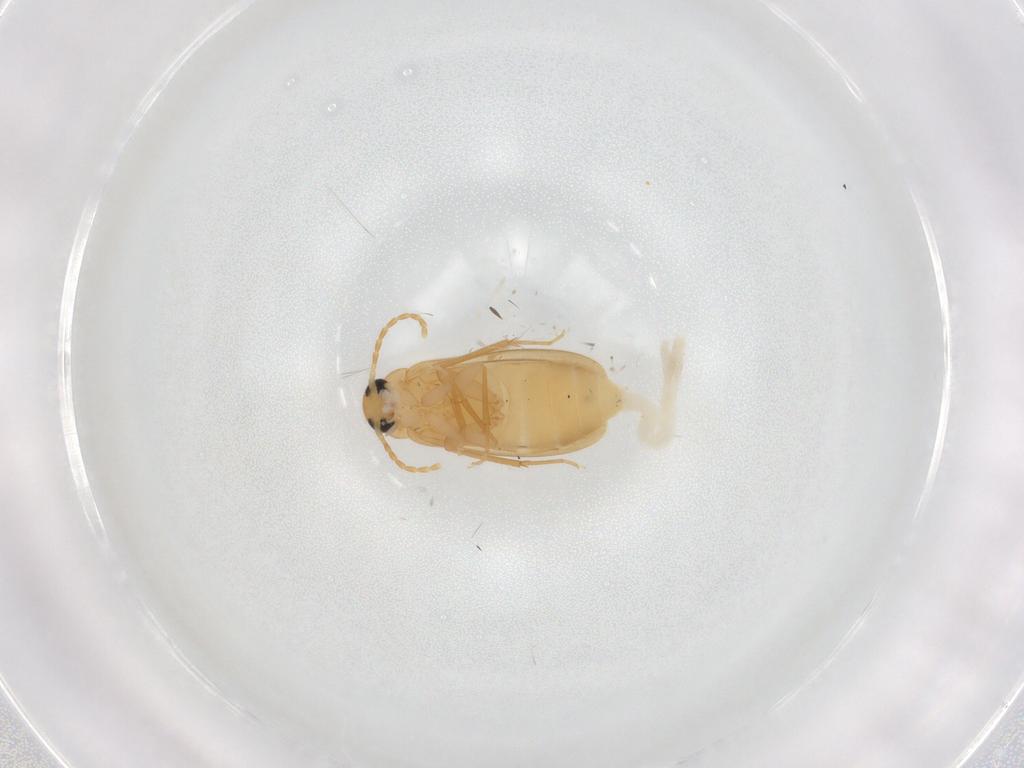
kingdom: Animalia
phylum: Arthropoda
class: Insecta
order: Coleoptera
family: Scraptiidae
